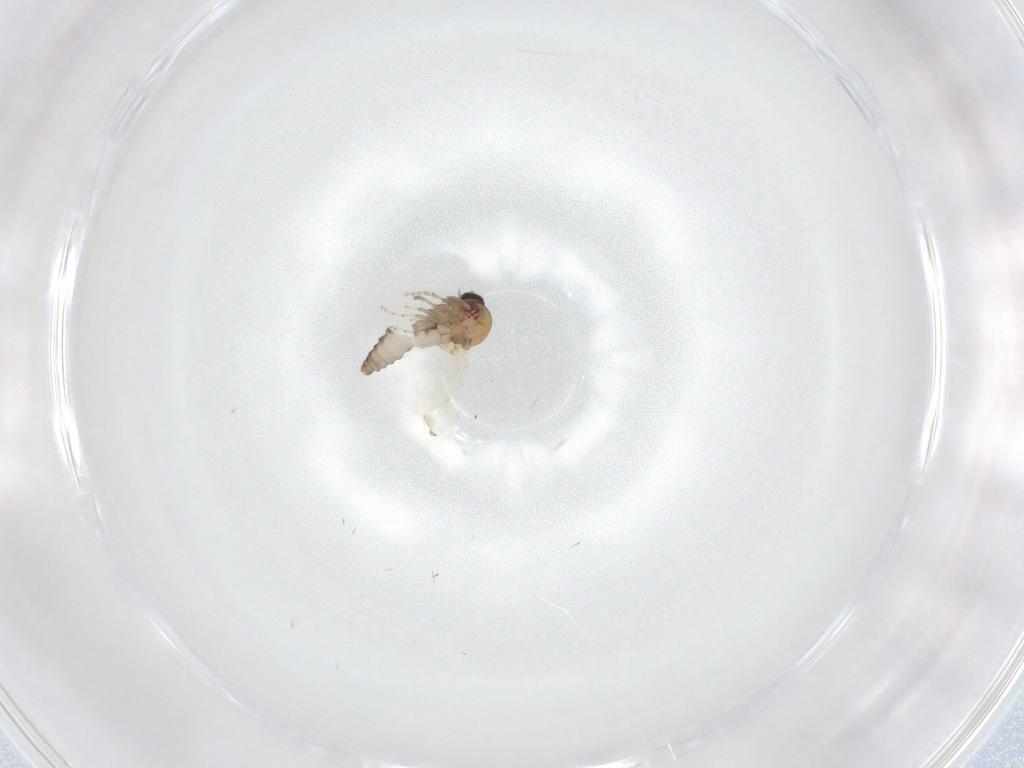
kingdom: Animalia
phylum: Arthropoda
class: Insecta
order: Diptera
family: Ceratopogonidae
